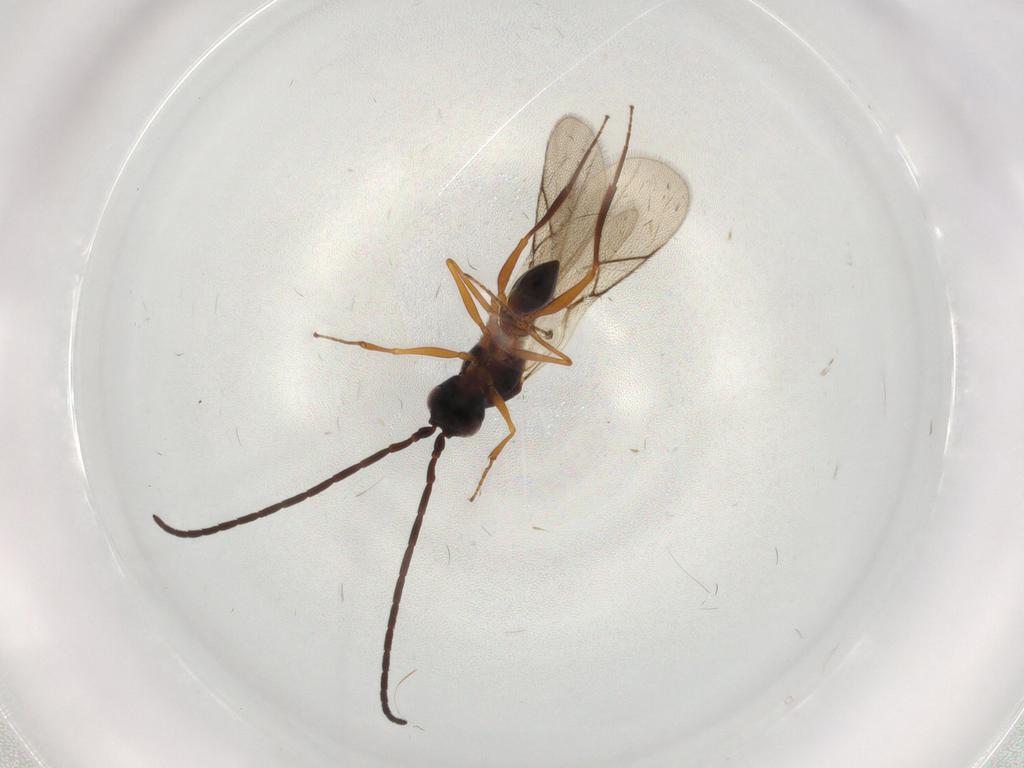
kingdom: Animalia
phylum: Arthropoda
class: Insecta
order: Hymenoptera
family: Figitidae
